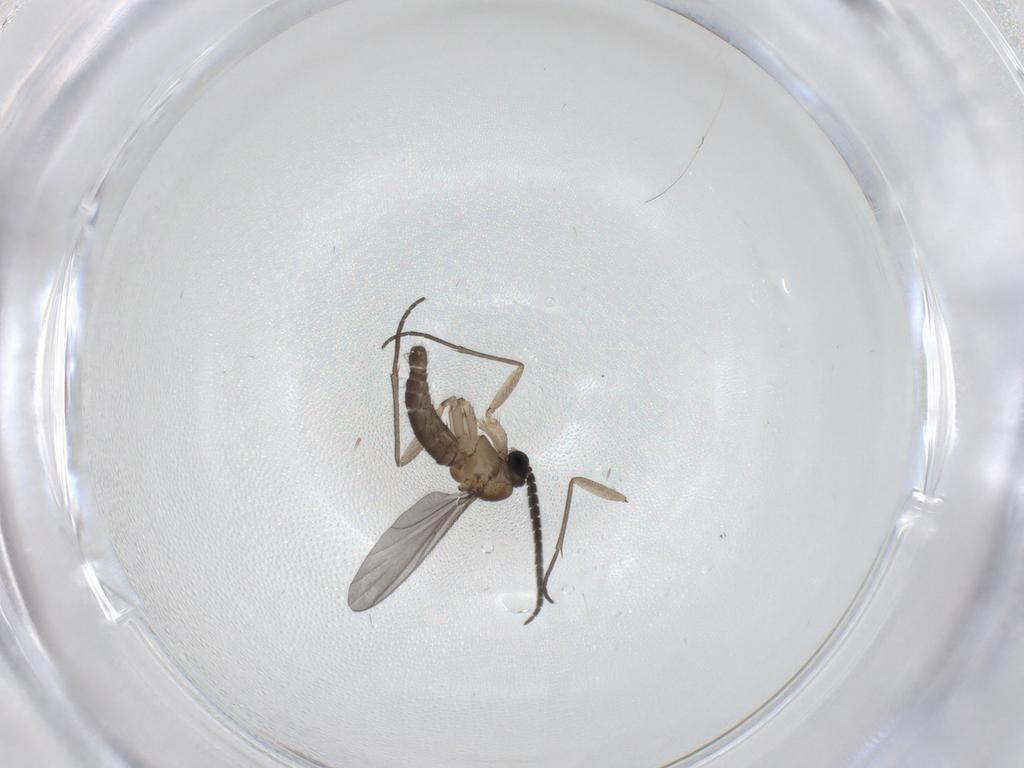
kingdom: Animalia
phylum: Arthropoda
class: Insecta
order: Diptera
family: Sciaridae
